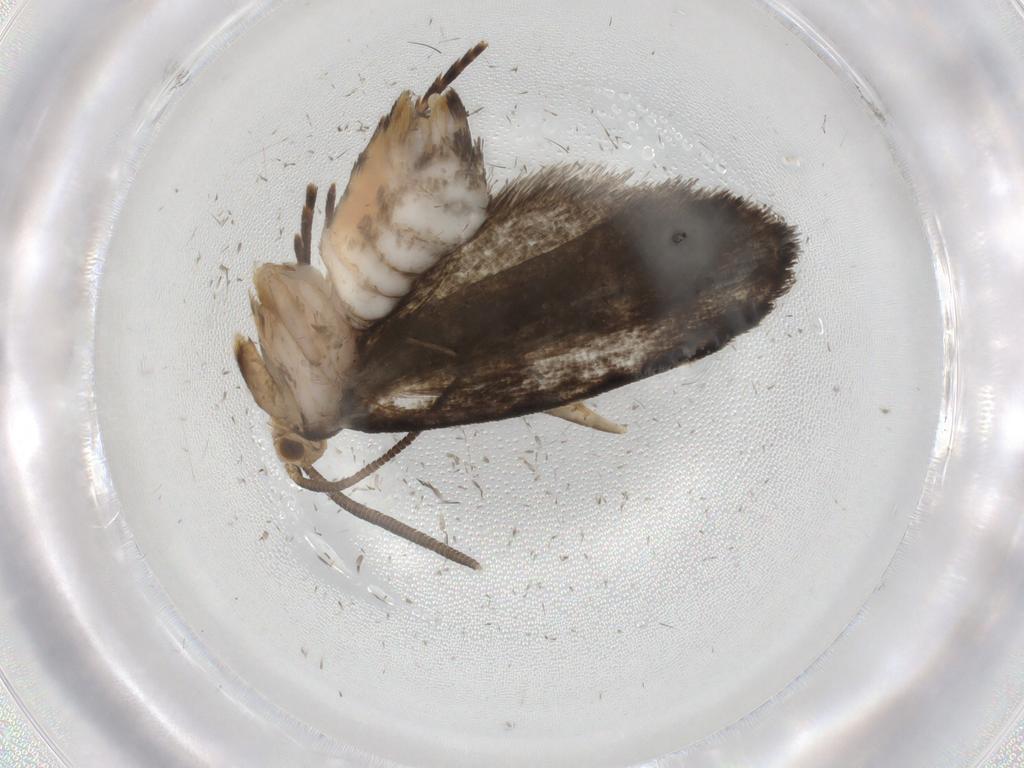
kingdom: Animalia
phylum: Arthropoda
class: Insecta
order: Lepidoptera
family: Dryadaulidae
